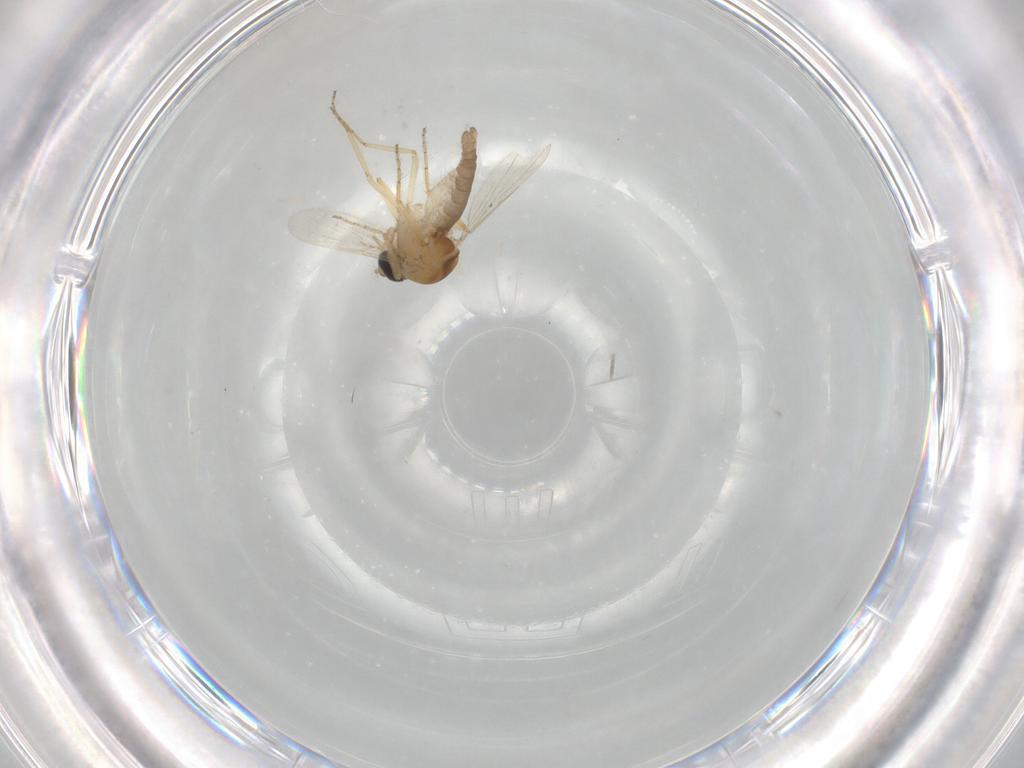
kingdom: Animalia
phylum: Arthropoda
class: Insecta
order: Diptera
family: Ceratopogonidae
